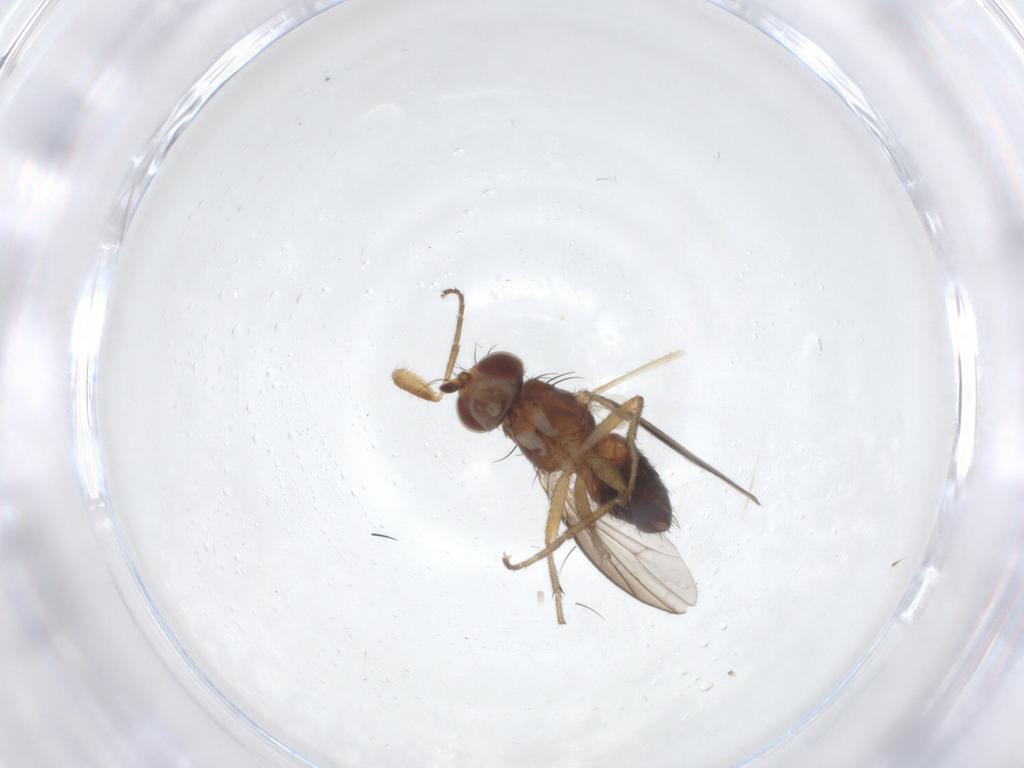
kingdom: Animalia
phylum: Arthropoda
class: Insecta
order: Diptera
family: Heleomyzidae
